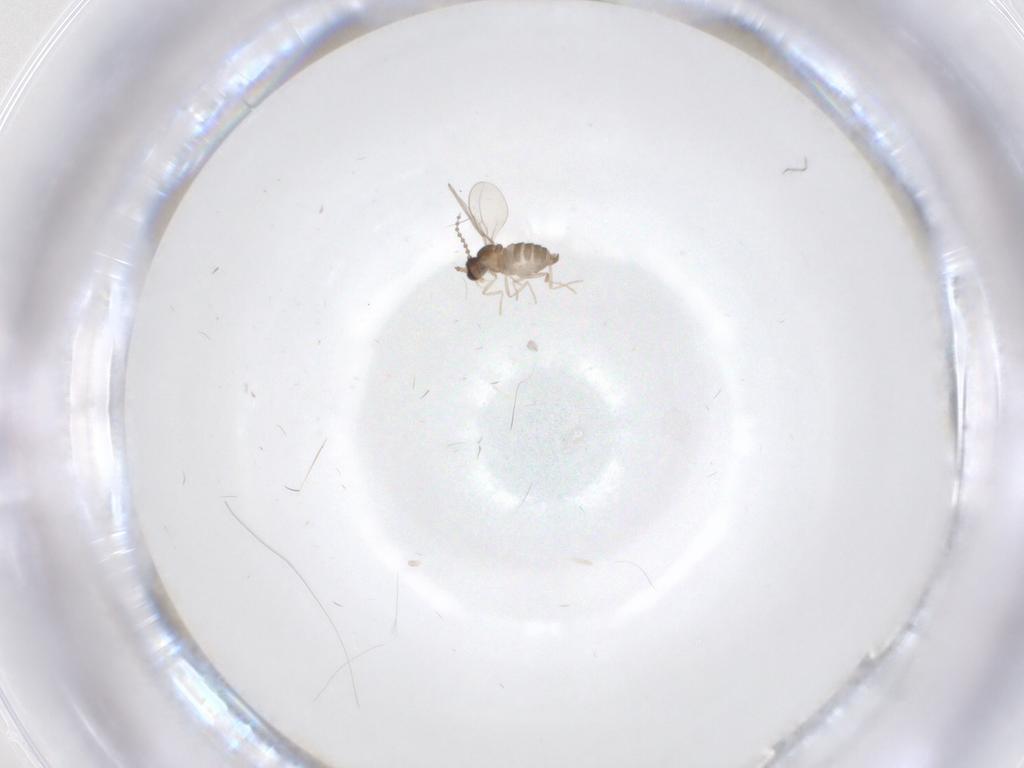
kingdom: Animalia
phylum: Arthropoda
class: Insecta
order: Diptera
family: Cecidomyiidae
